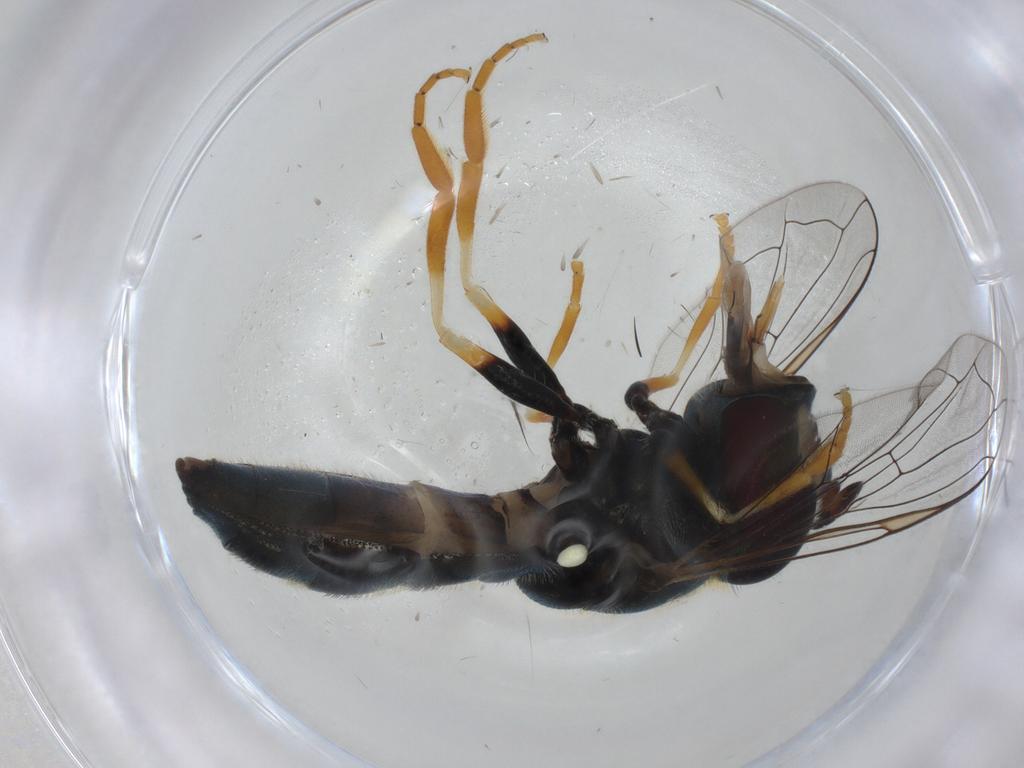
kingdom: Animalia
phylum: Arthropoda
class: Insecta
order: Diptera
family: Syrphidae
